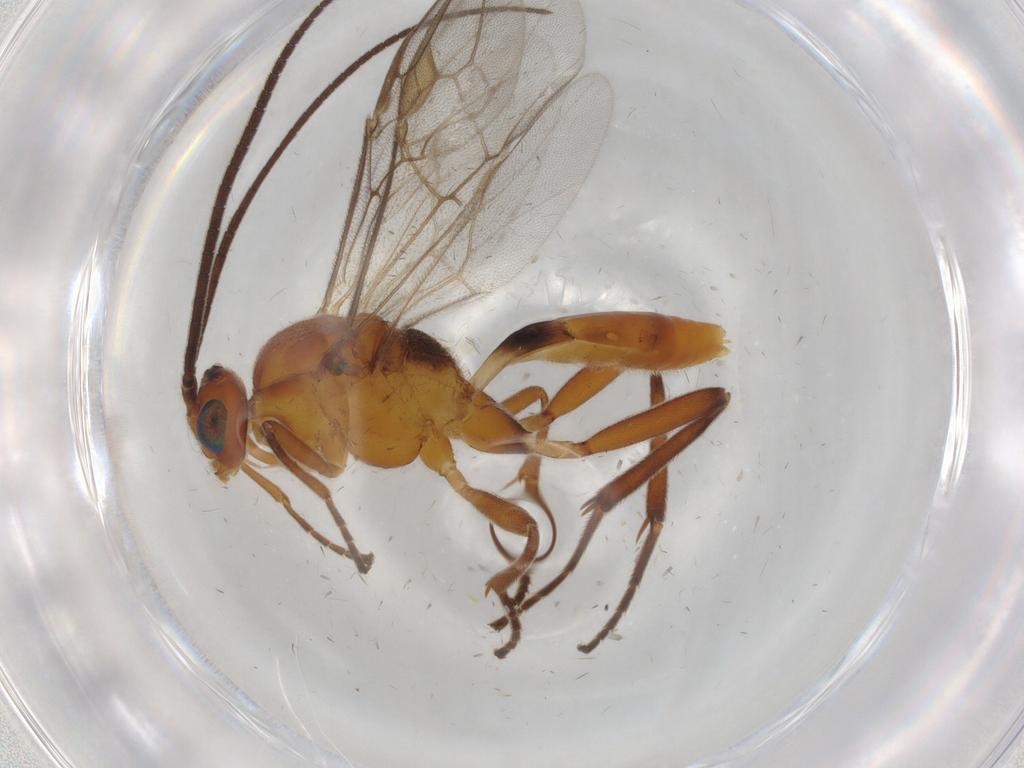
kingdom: Animalia
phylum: Arthropoda
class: Insecta
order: Hymenoptera
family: Braconidae
